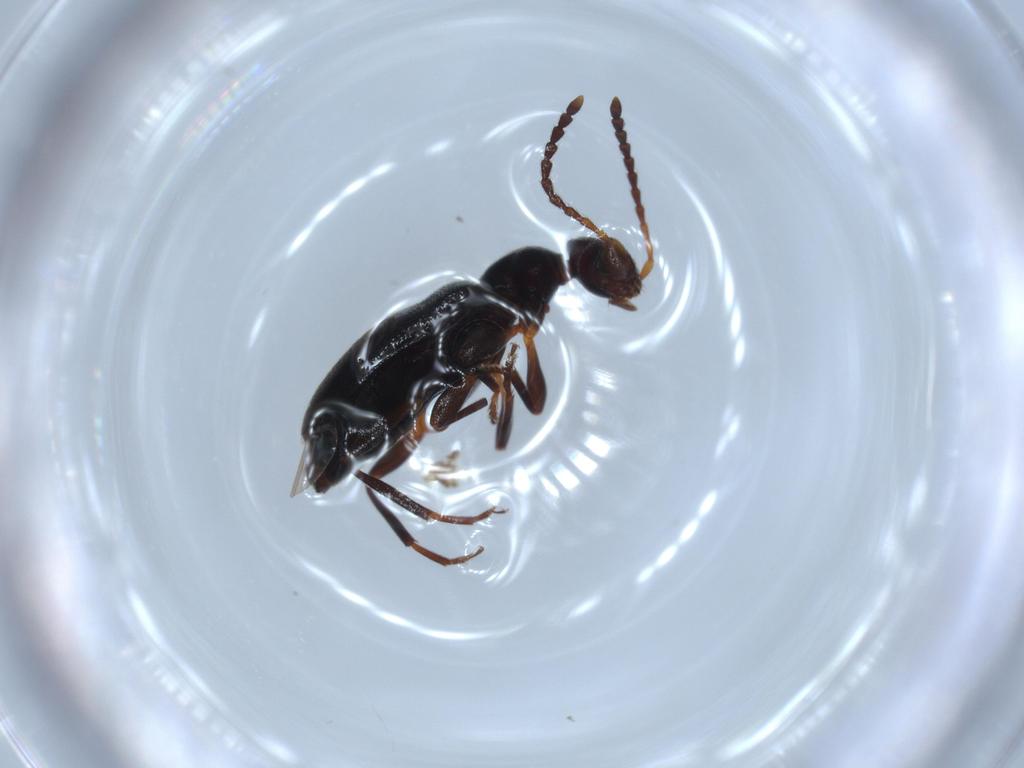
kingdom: Animalia
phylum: Arthropoda
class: Insecta
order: Coleoptera
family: Anthicidae
